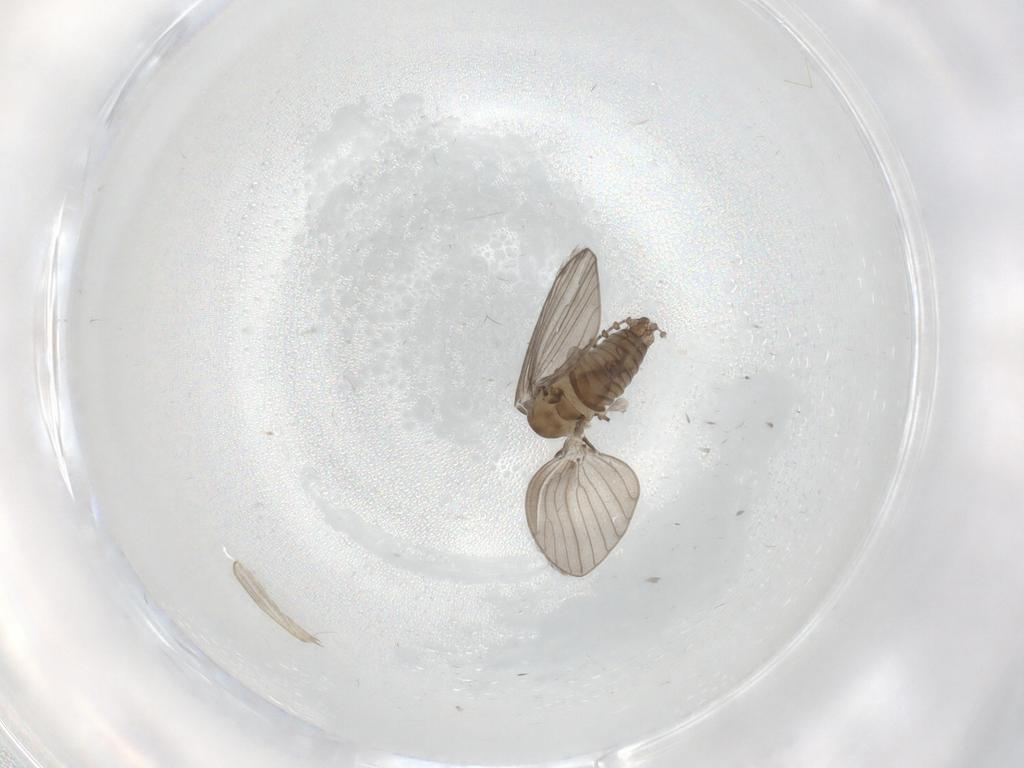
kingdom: Animalia
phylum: Arthropoda
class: Insecta
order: Diptera
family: Psychodidae
